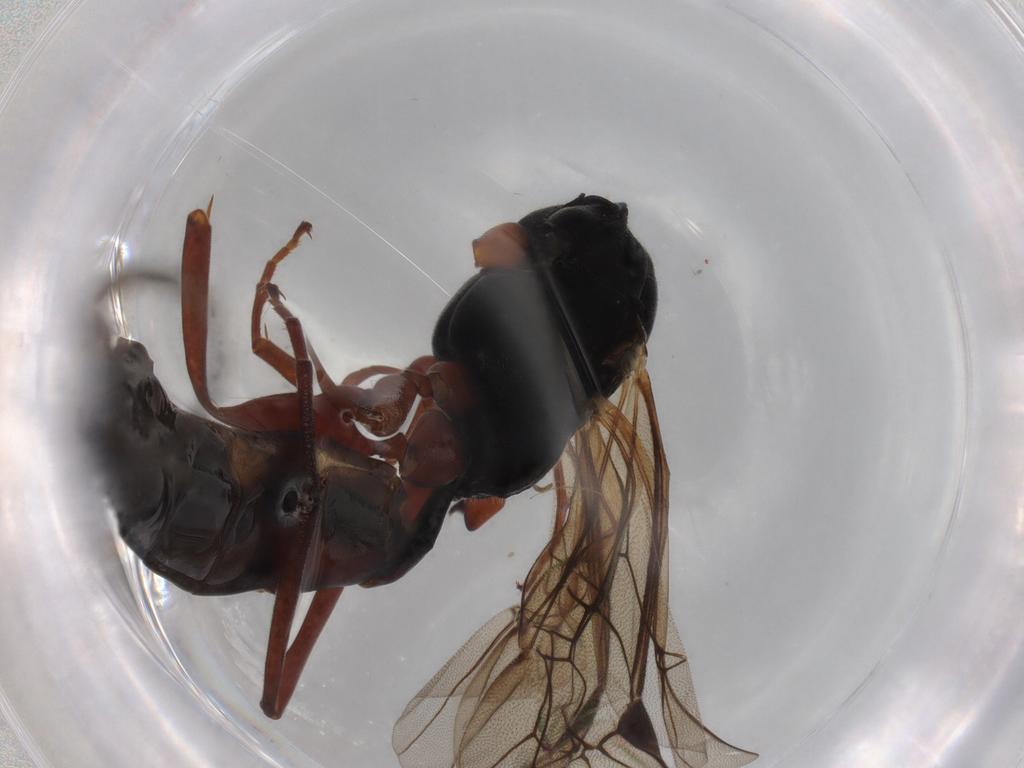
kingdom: Animalia
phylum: Arthropoda
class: Insecta
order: Hymenoptera
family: Ichneumonidae
